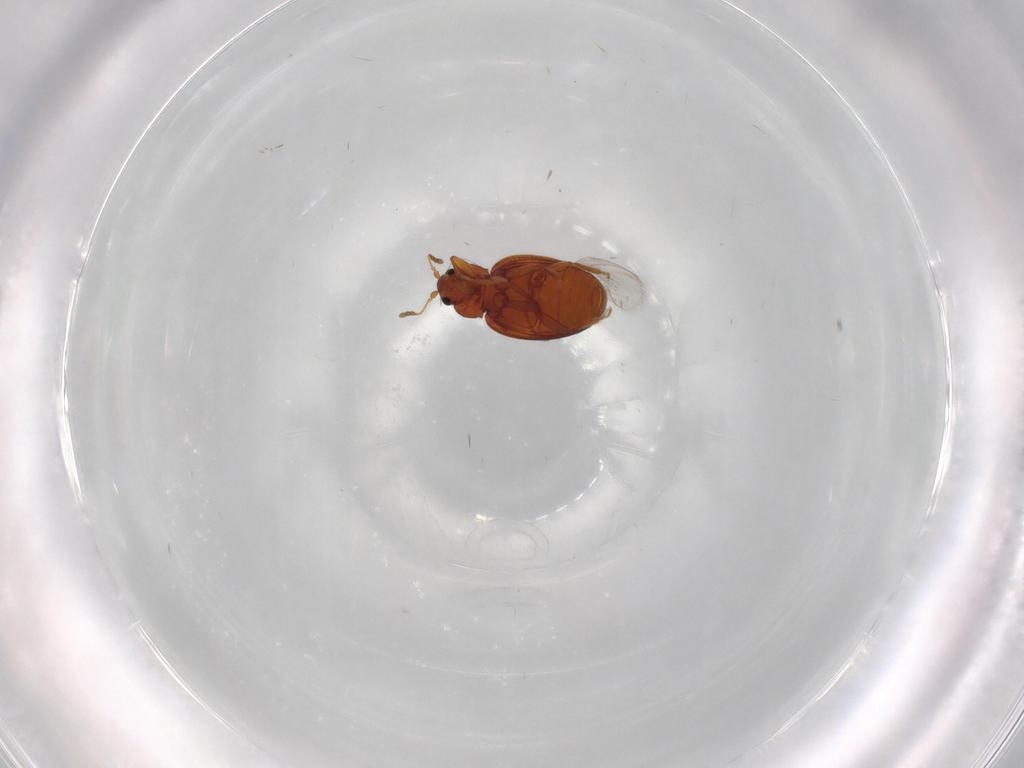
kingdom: Animalia
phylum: Arthropoda
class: Insecta
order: Coleoptera
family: Latridiidae
